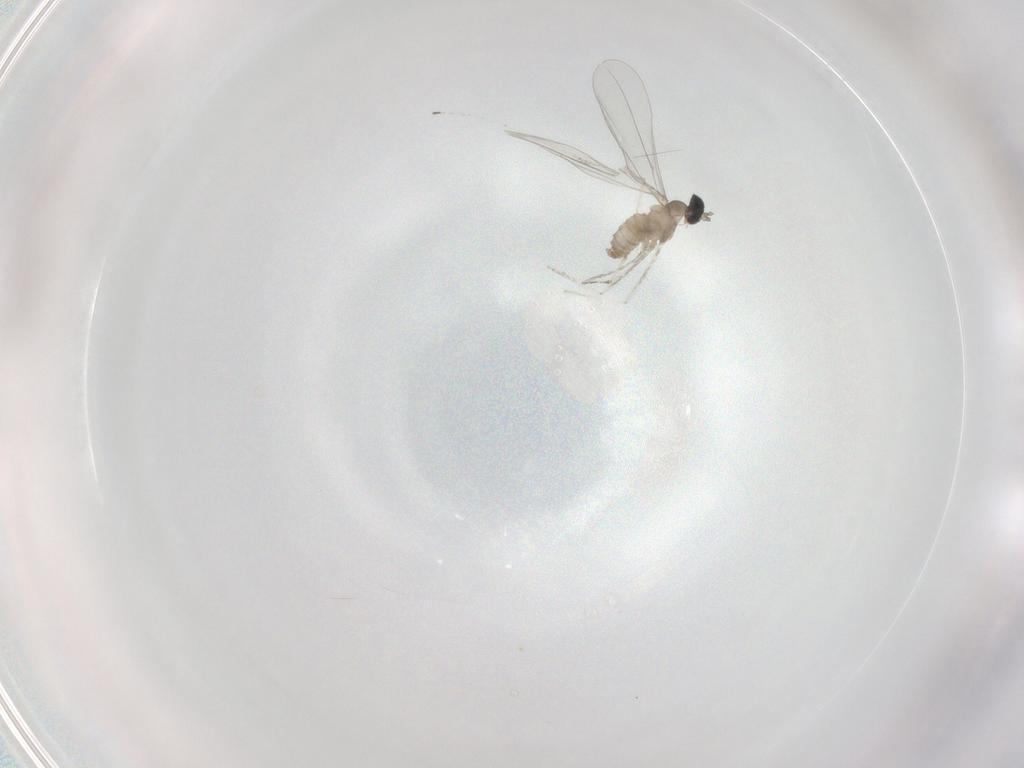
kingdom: Animalia
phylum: Arthropoda
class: Insecta
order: Diptera
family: Cecidomyiidae
